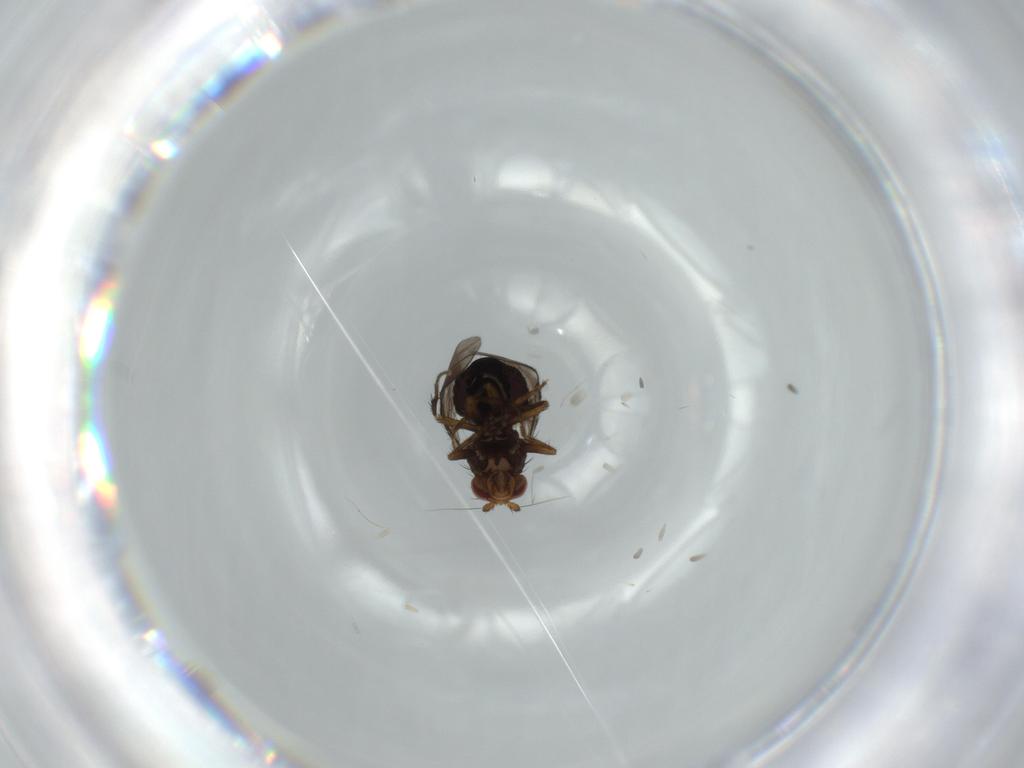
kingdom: Animalia
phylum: Arthropoda
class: Insecta
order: Diptera
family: Sphaeroceridae
